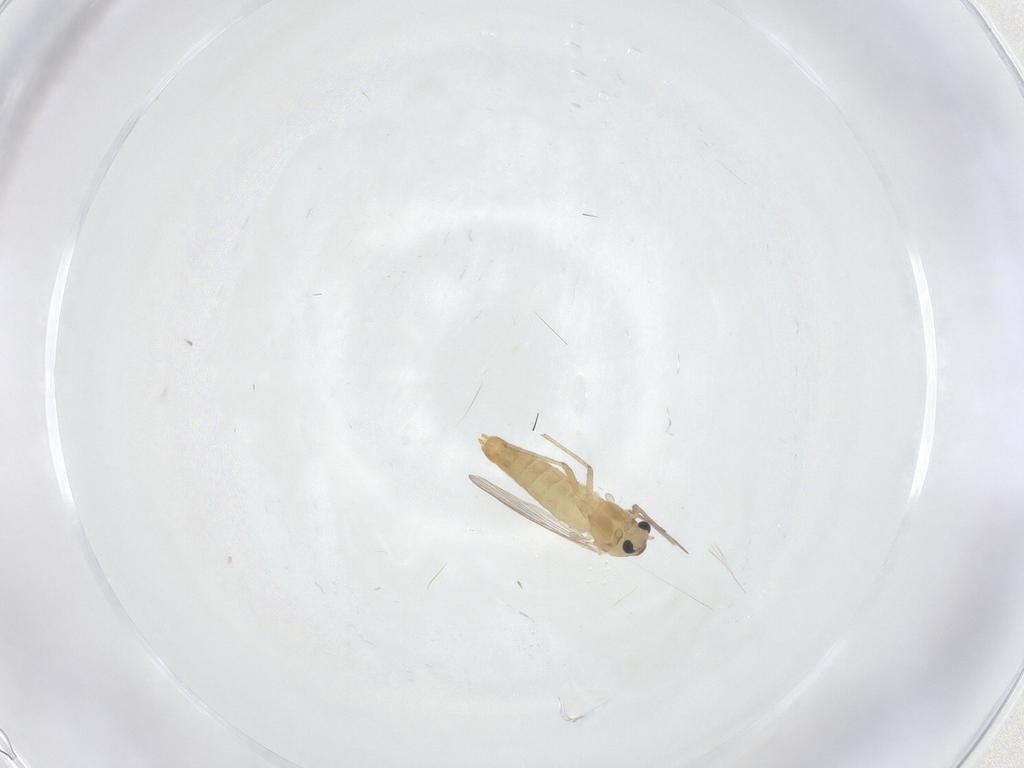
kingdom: Animalia
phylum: Arthropoda
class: Insecta
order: Diptera
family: Chironomidae
